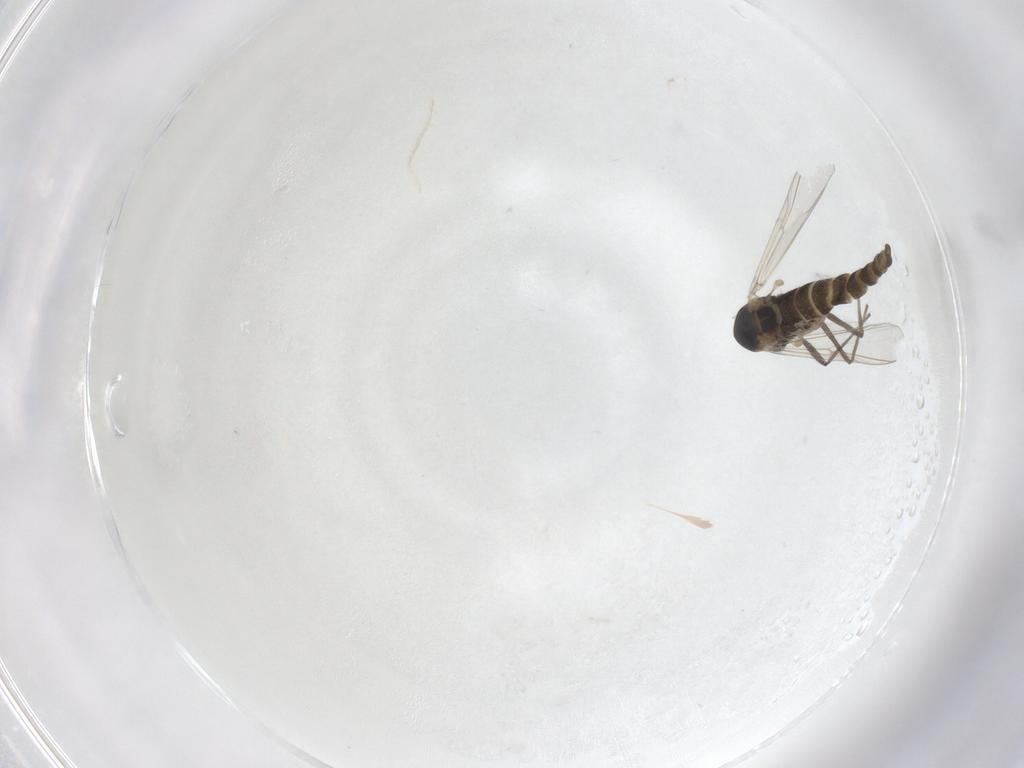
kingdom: Animalia
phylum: Arthropoda
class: Insecta
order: Diptera
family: Chironomidae
